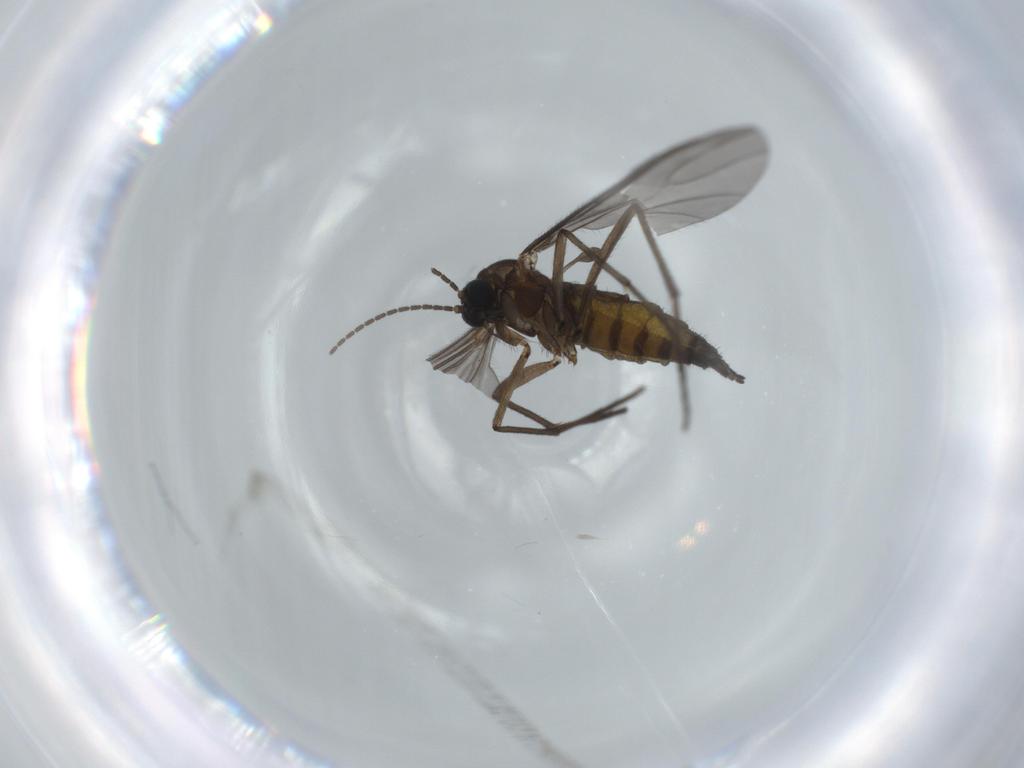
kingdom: Animalia
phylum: Arthropoda
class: Insecta
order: Diptera
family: Sciaridae
